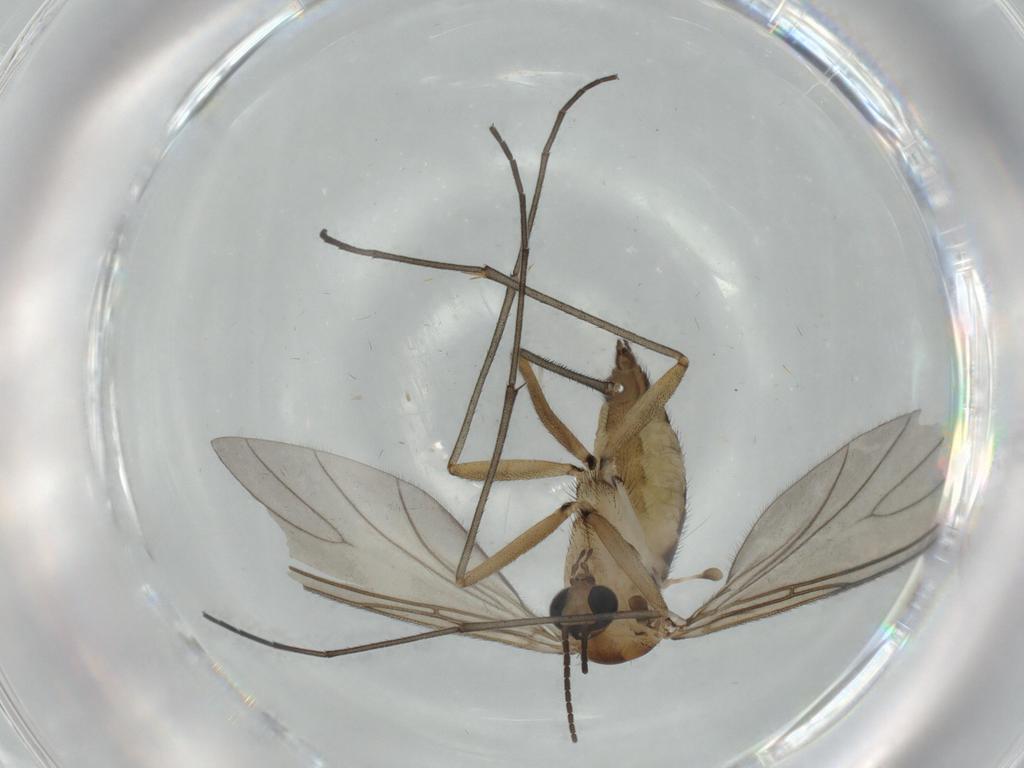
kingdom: Animalia
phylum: Arthropoda
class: Insecta
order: Diptera
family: Sciaridae
